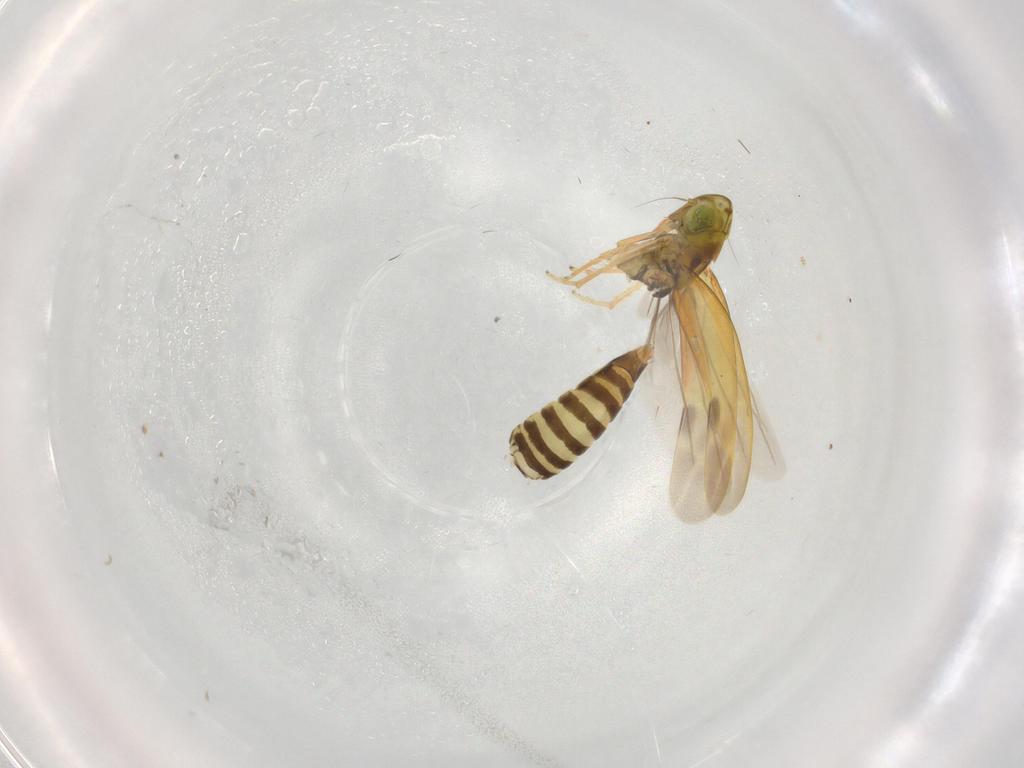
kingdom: Animalia
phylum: Arthropoda
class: Insecta
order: Hemiptera
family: Cicadellidae
